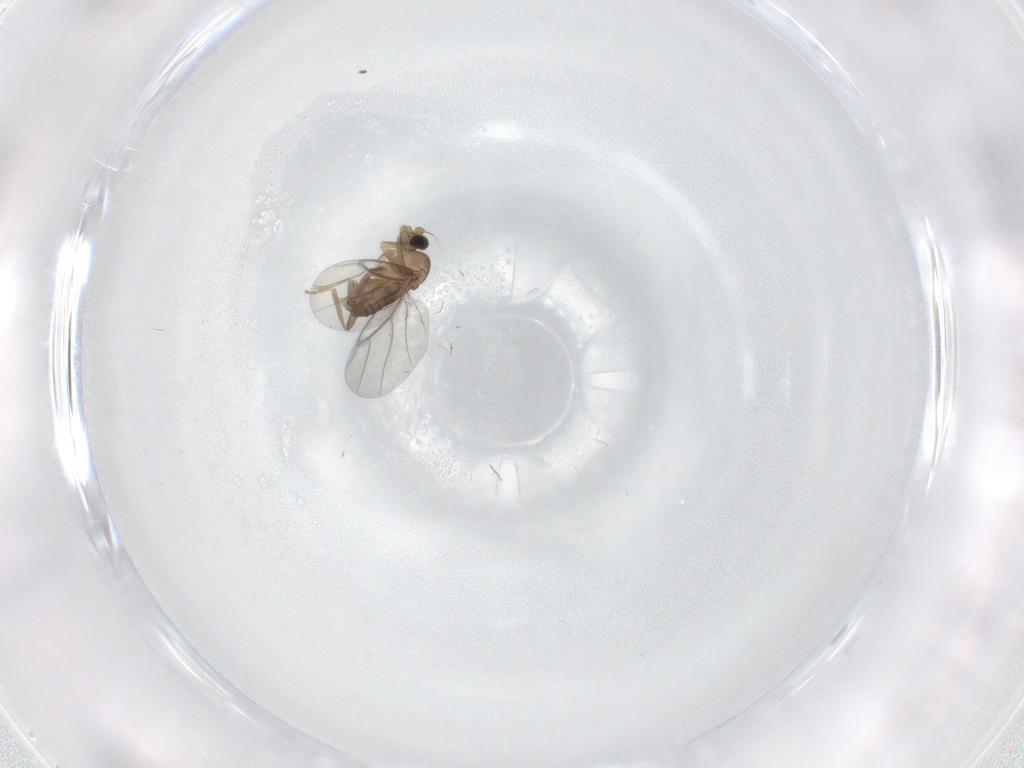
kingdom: Animalia
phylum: Arthropoda
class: Insecta
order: Diptera
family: Chironomidae
